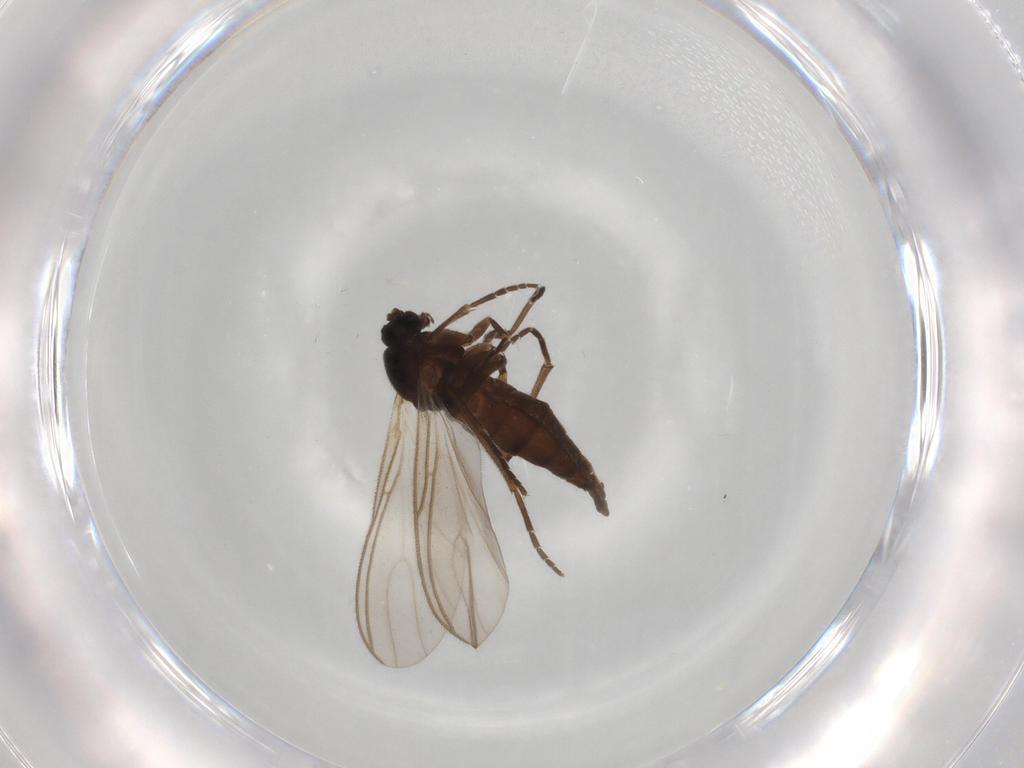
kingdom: Animalia
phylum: Arthropoda
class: Insecta
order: Diptera
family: Sciaridae
